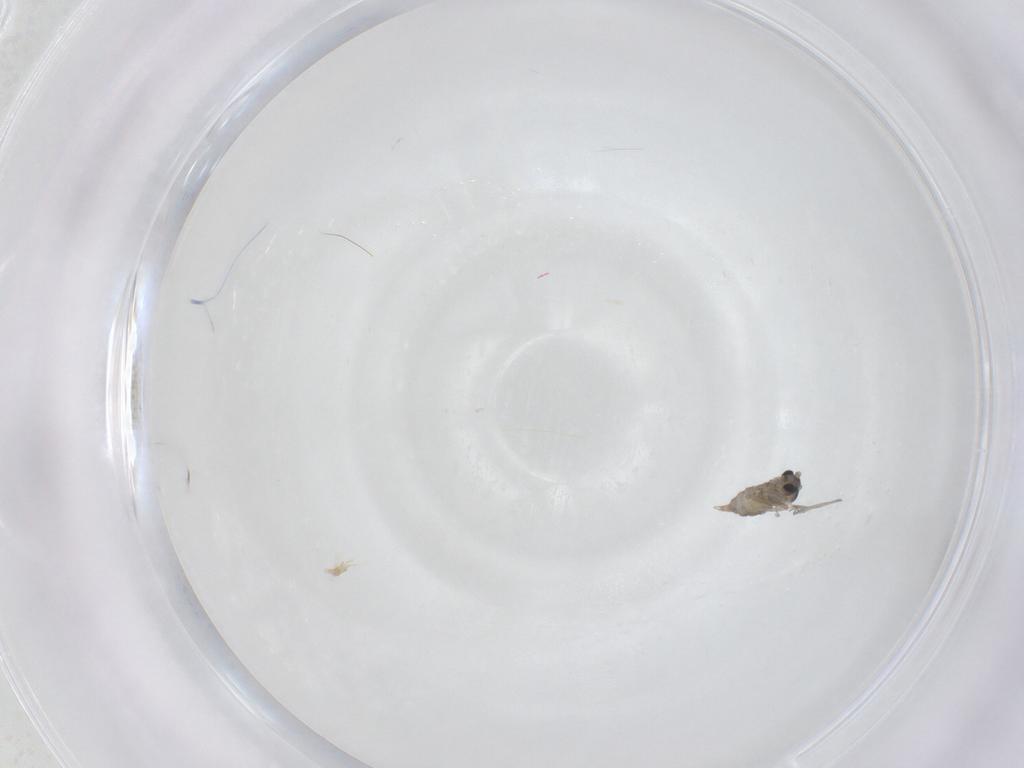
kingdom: Animalia
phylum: Arthropoda
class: Insecta
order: Diptera
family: Cecidomyiidae
